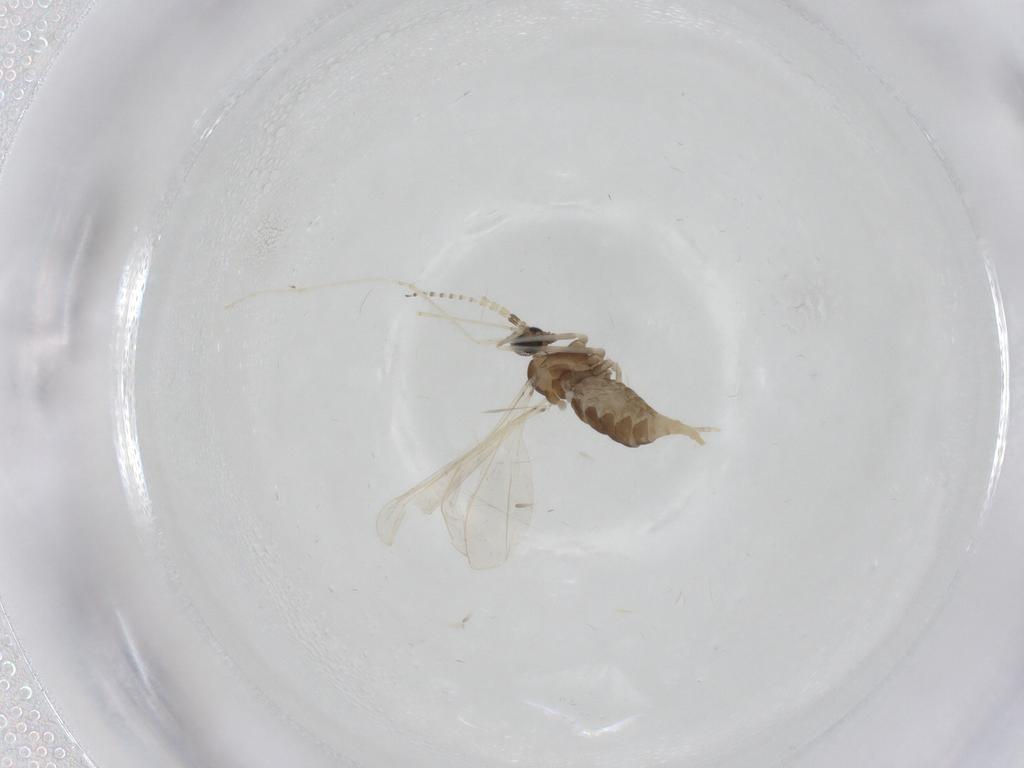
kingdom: Animalia
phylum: Arthropoda
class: Insecta
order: Diptera
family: Cecidomyiidae
